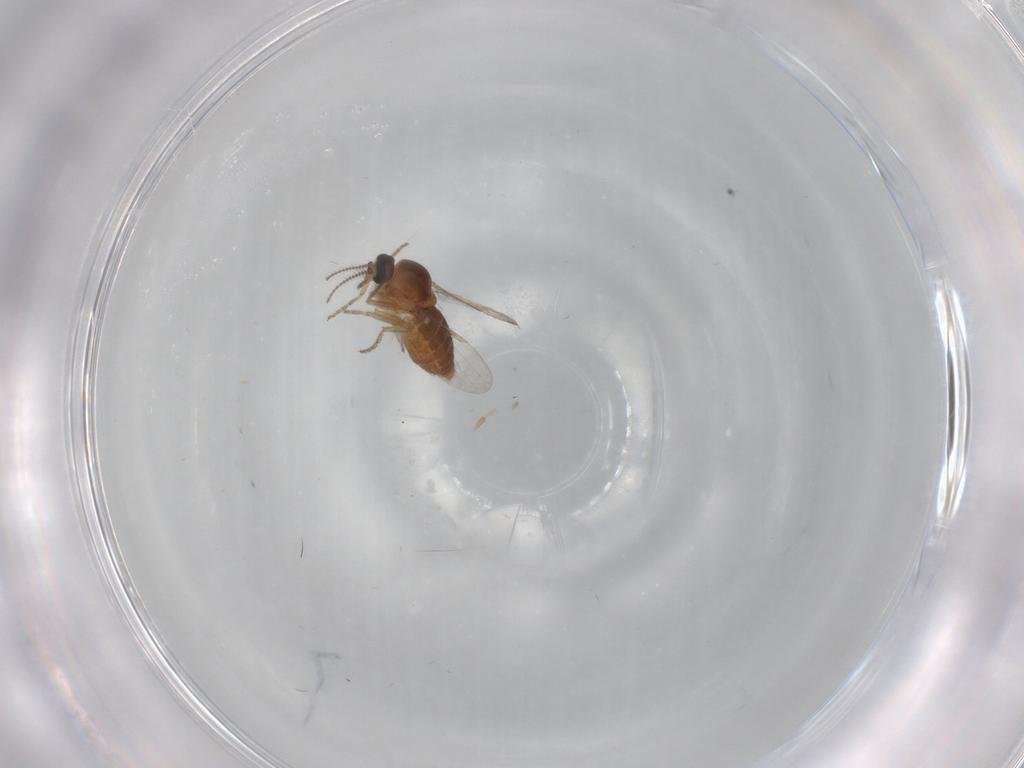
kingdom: Animalia
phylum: Arthropoda
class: Insecta
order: Diptera
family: Ceratopogonidae
